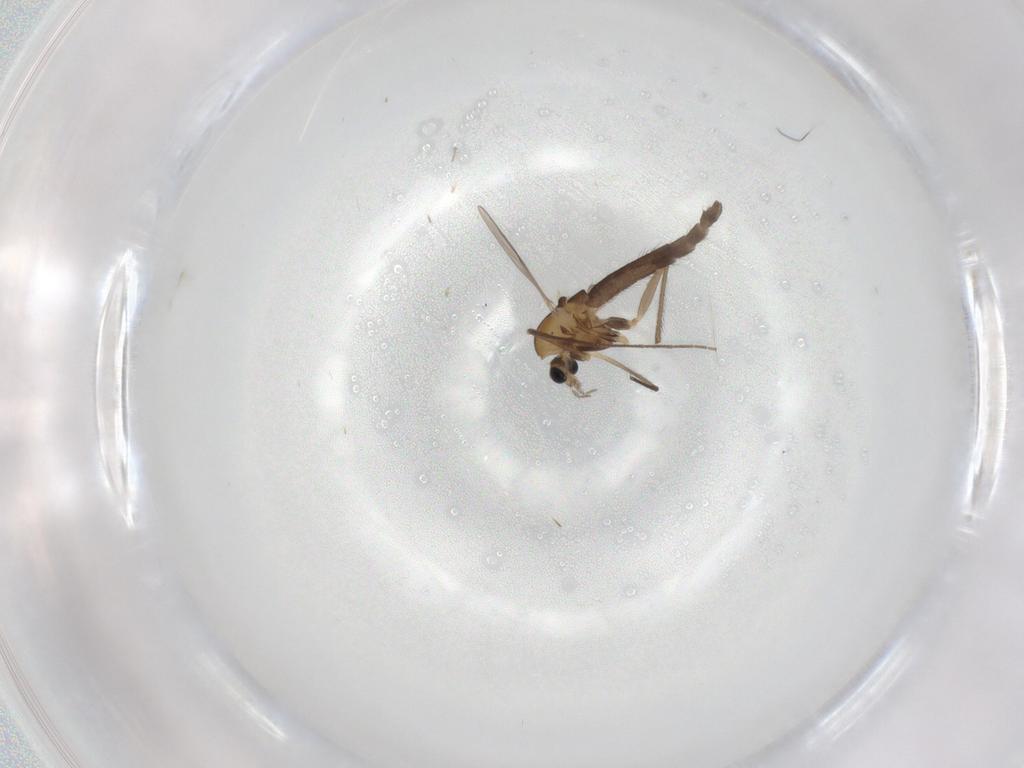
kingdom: Animalia
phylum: Arthropoda
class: Insecta
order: Diptera
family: Chironomidae
